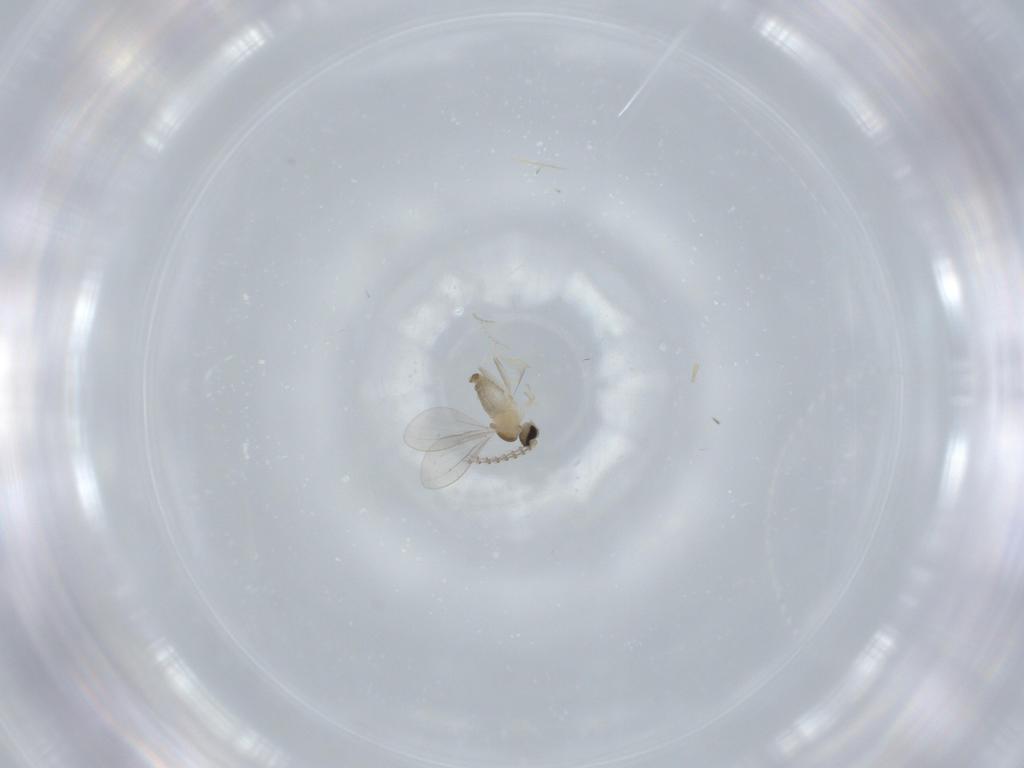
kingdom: Animalia
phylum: Arthropoda
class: Insecta
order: Diptera
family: Cecidomyiidae
